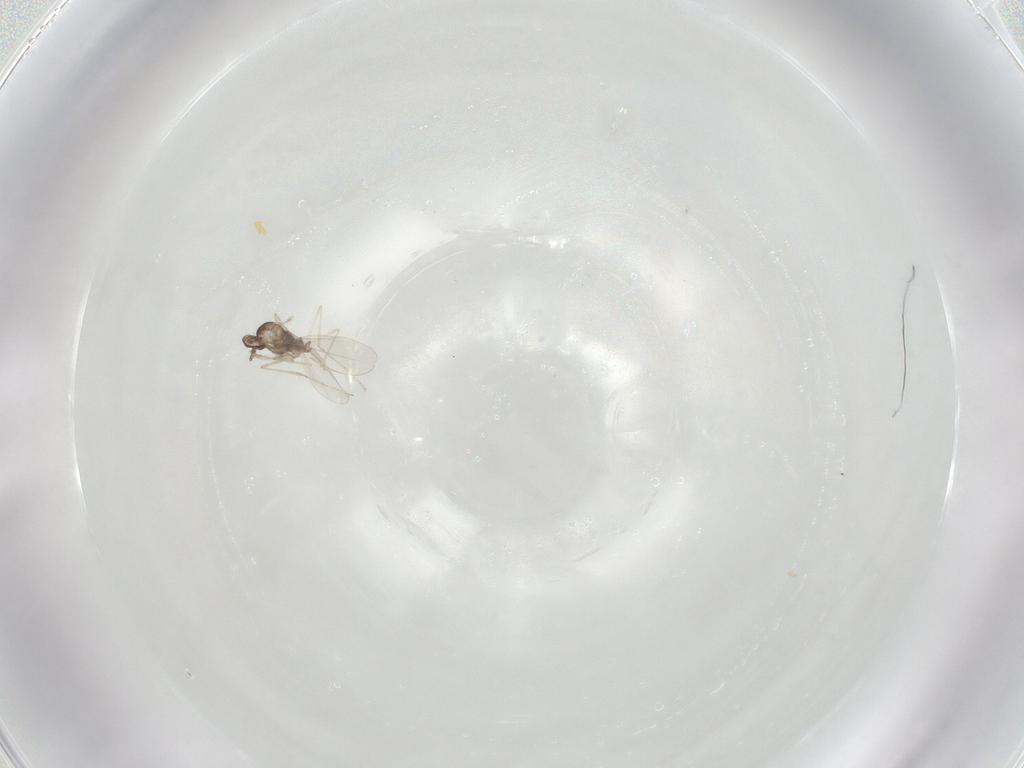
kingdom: Animalia
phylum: Arthropoda
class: Insecta
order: Diptera
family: Cecidomyiidae
